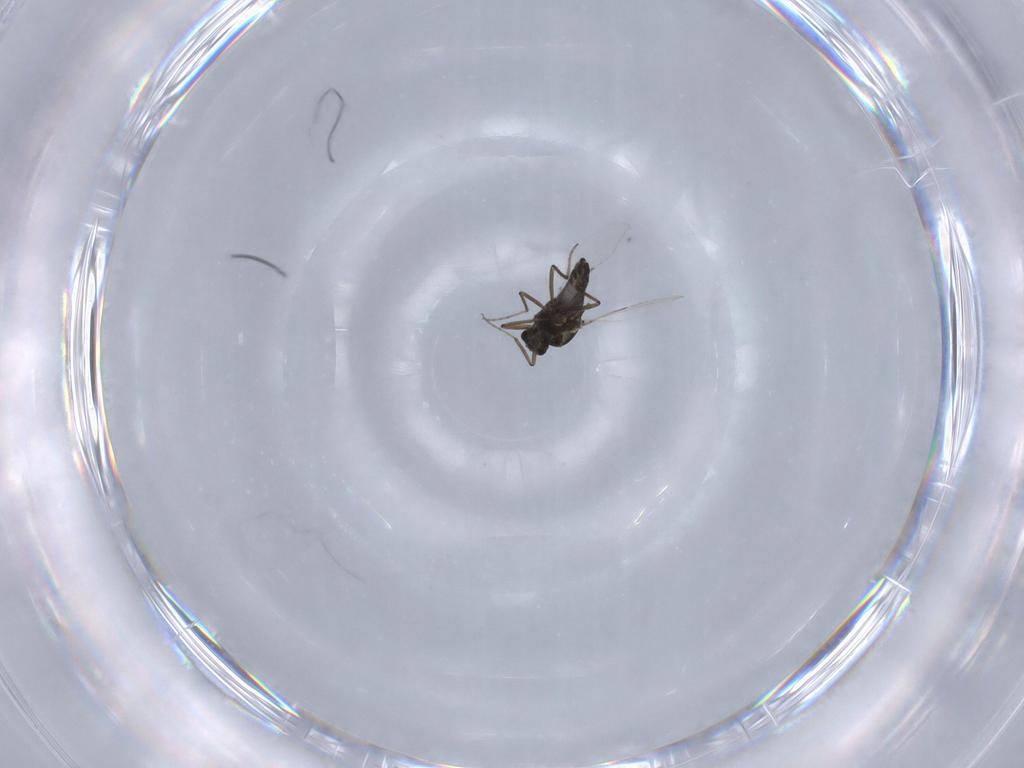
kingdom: Animalia
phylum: Arthropoda
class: Insecta
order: Diptera
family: Ceratopogonidae
